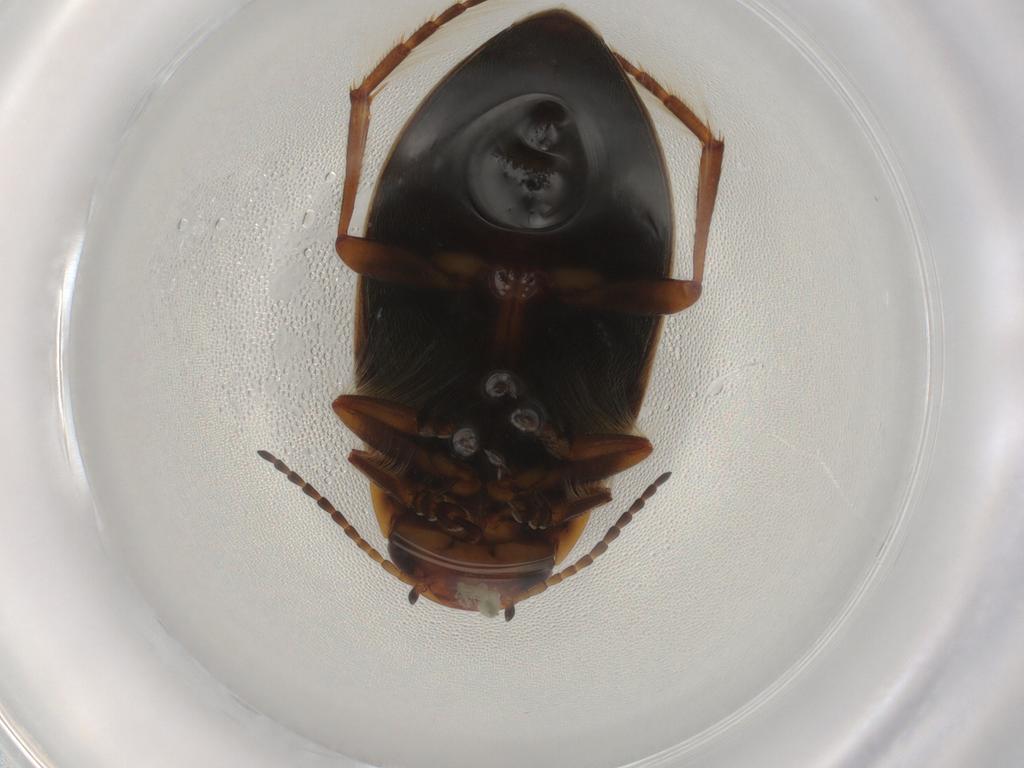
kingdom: Animalia
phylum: Arthropoda
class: Insecta
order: Coleoptera
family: Dytiscidae
